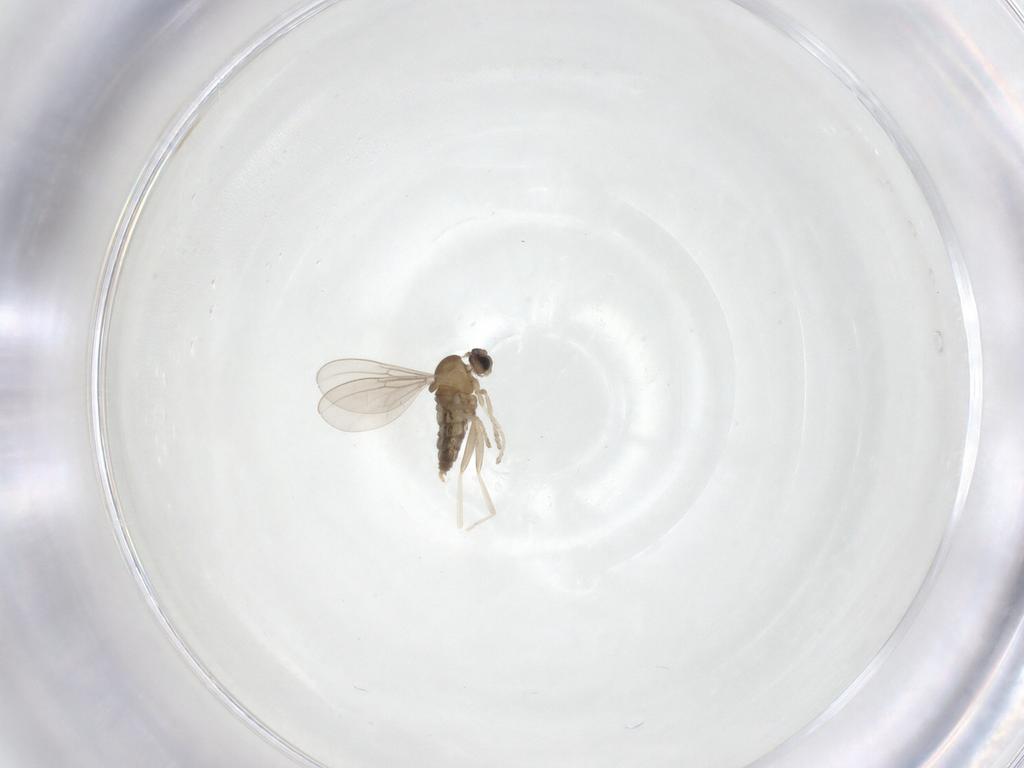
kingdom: Animalia
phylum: Arthropoda
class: Insecta
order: Diptera
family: Cecidomyiidae
